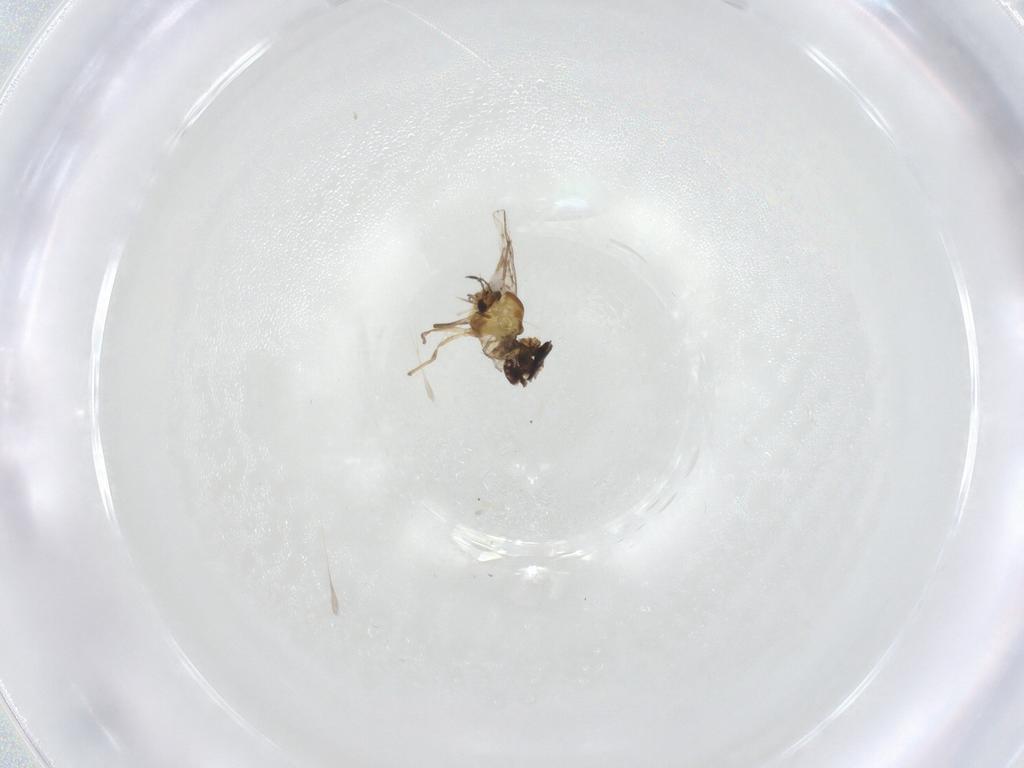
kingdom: Animalia
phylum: Arthropoda
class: Insecta
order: Diptera
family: Chironomidae
